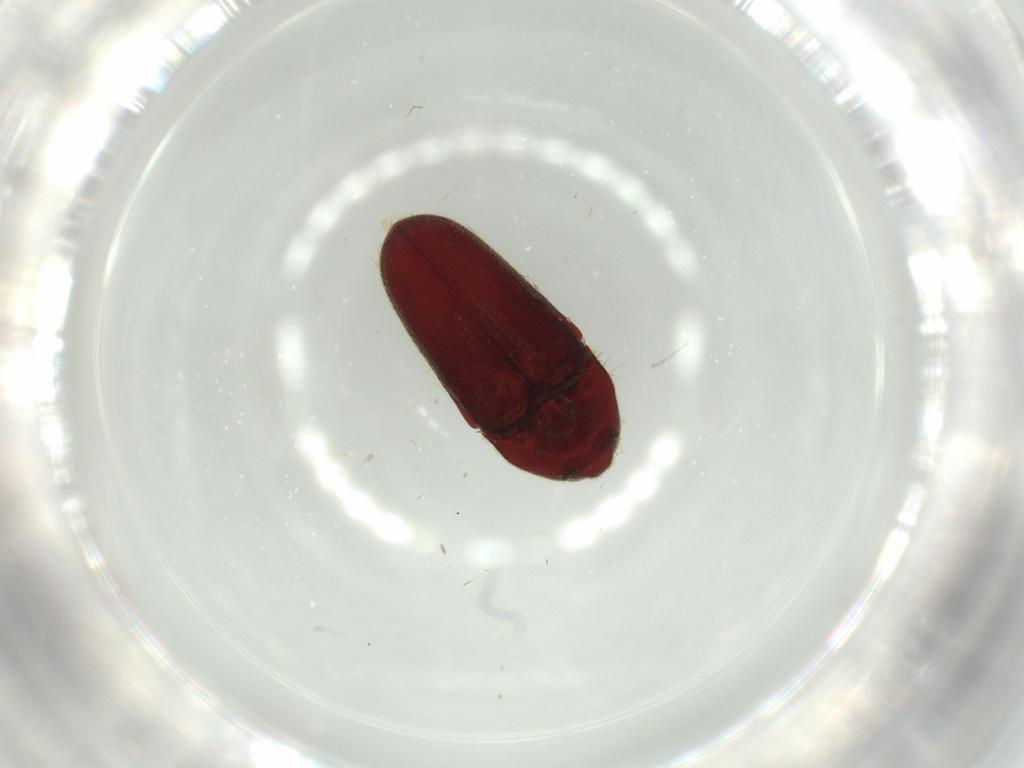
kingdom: Animalia
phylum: Arthropoda
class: Insecta
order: Coleoptera
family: Throscidae
